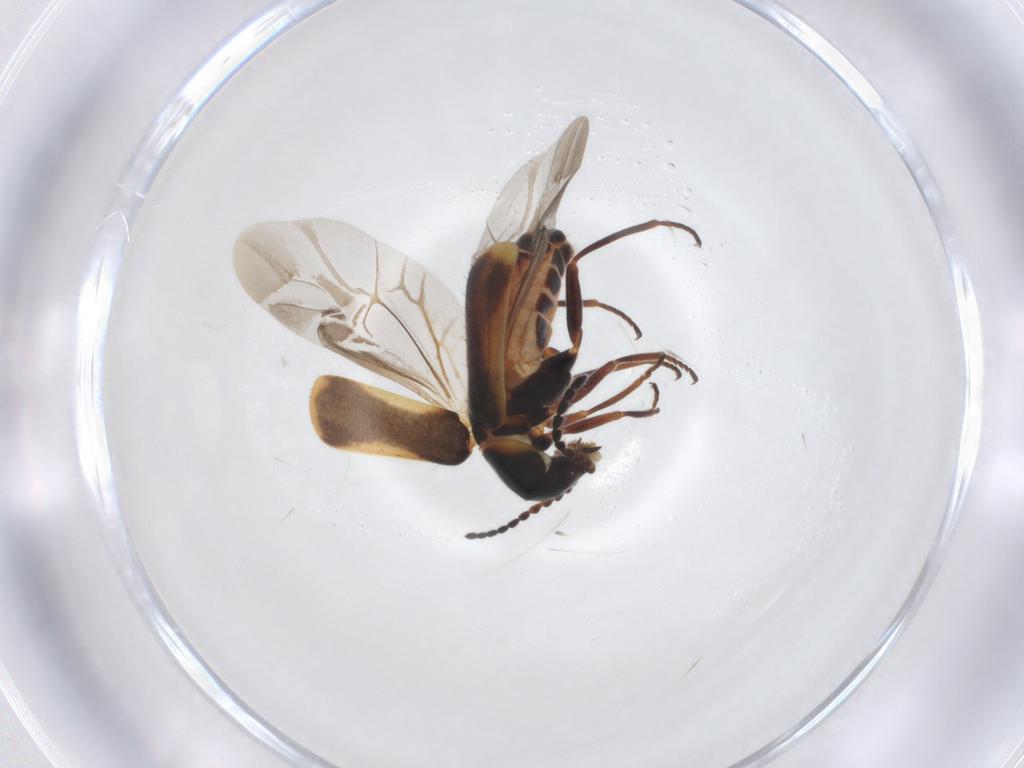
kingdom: Animalia
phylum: Arthropoda
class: Insecta
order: Coleoptera
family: Melyridae
